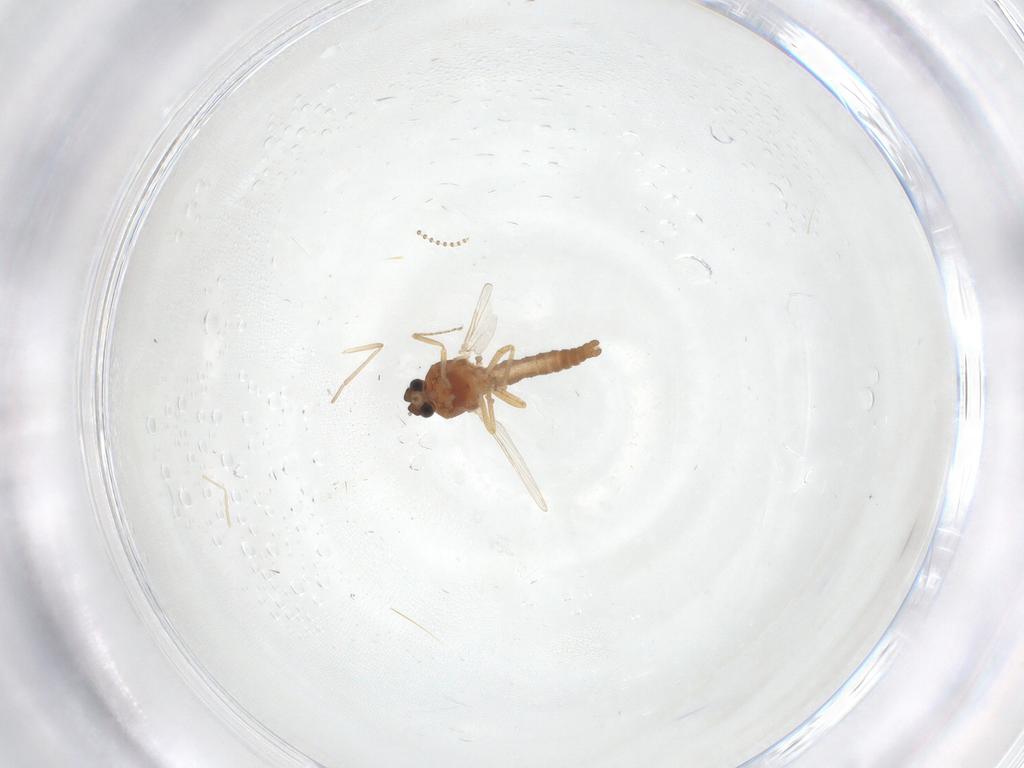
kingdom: Animalia
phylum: Arthropoda
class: Insecta
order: Diptera
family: Ceratopogonidae
